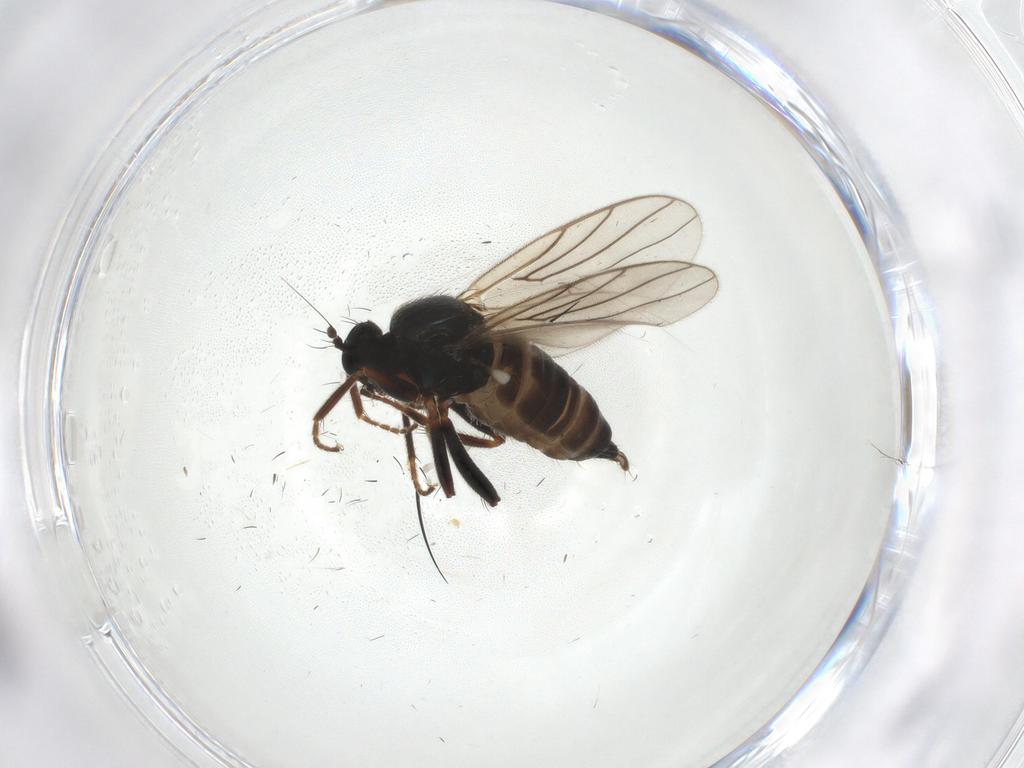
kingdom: Animalia
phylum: Arthropoda
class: Insecta
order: Diptera
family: Hybotidae
